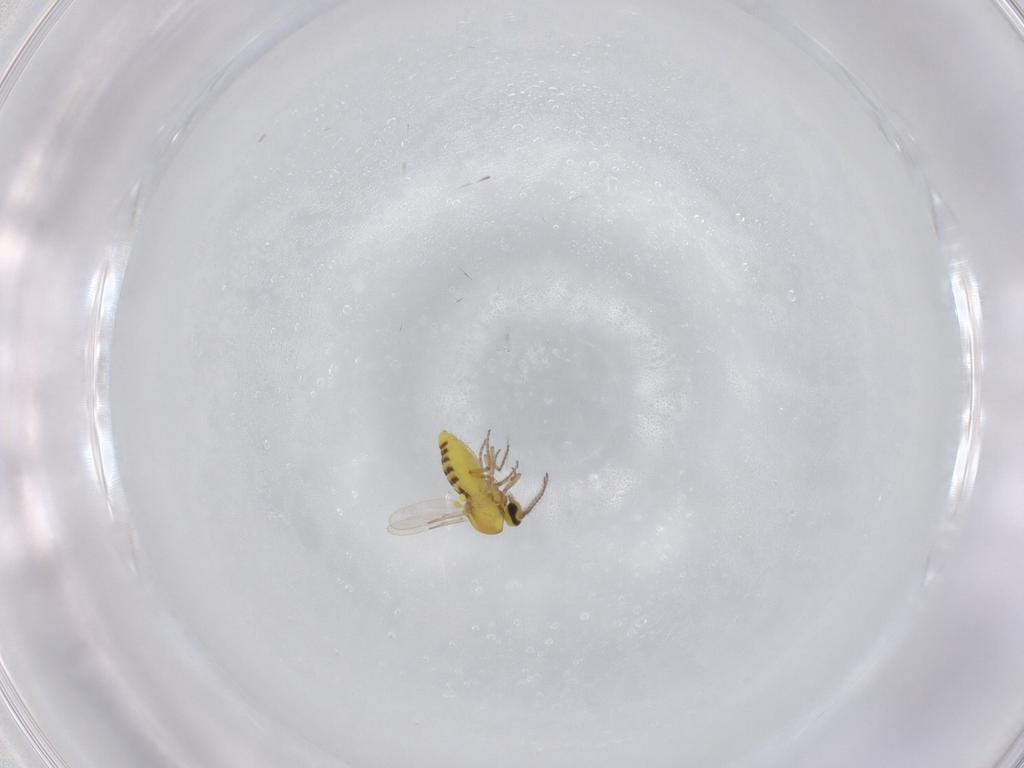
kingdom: Animalia
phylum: Arthropoda
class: Insecta
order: Diptera
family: Ceratopogonidae
